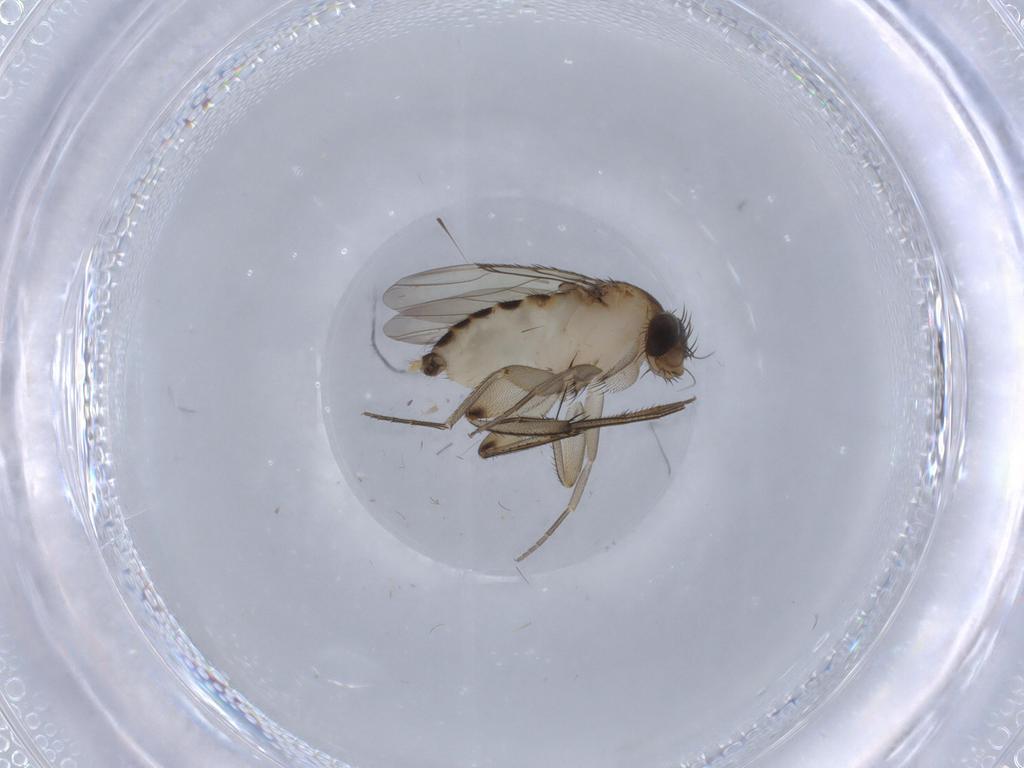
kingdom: Animalia
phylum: Arthropoda
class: Insecta
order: Diptera
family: Phoridae
